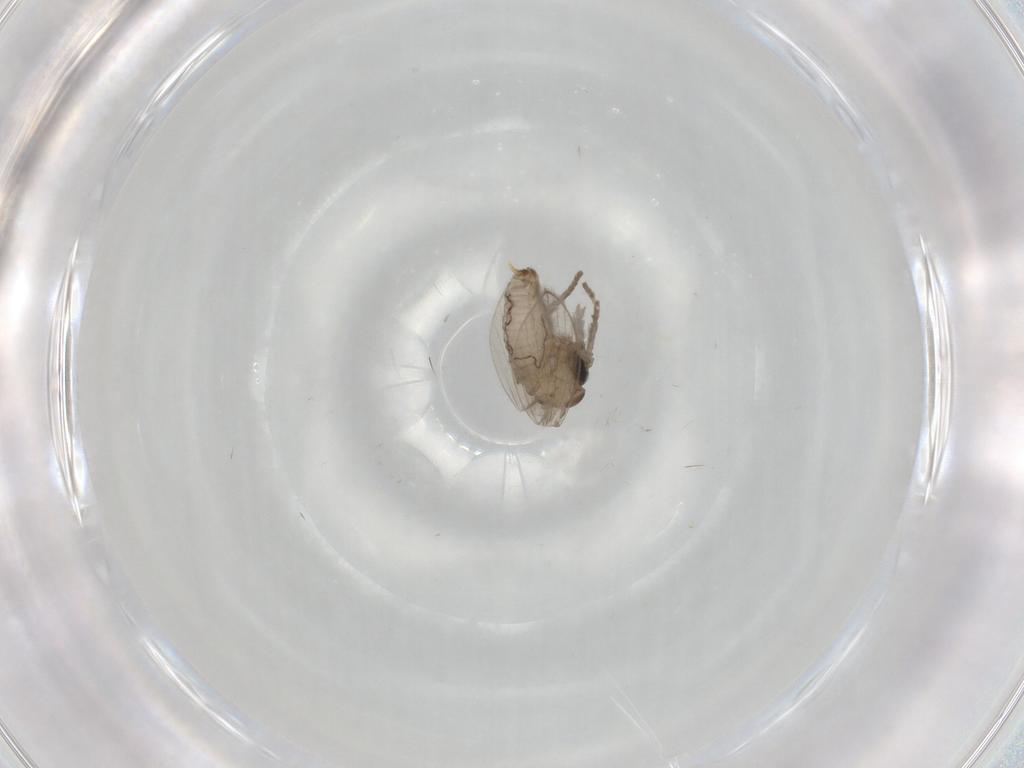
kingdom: Animalia
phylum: Arthropoda
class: Insecta
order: Diptera
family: Psychodidae
